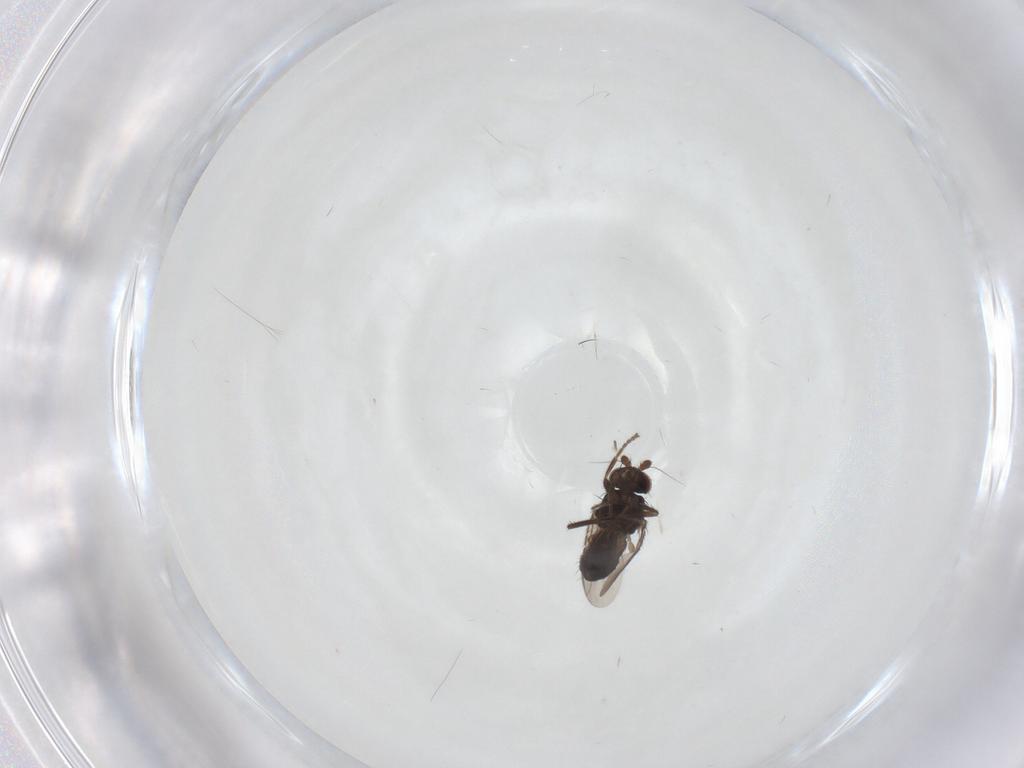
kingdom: Animalia
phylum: Arthropoda
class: Insecta
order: Diptera
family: Sphaeroceridae
